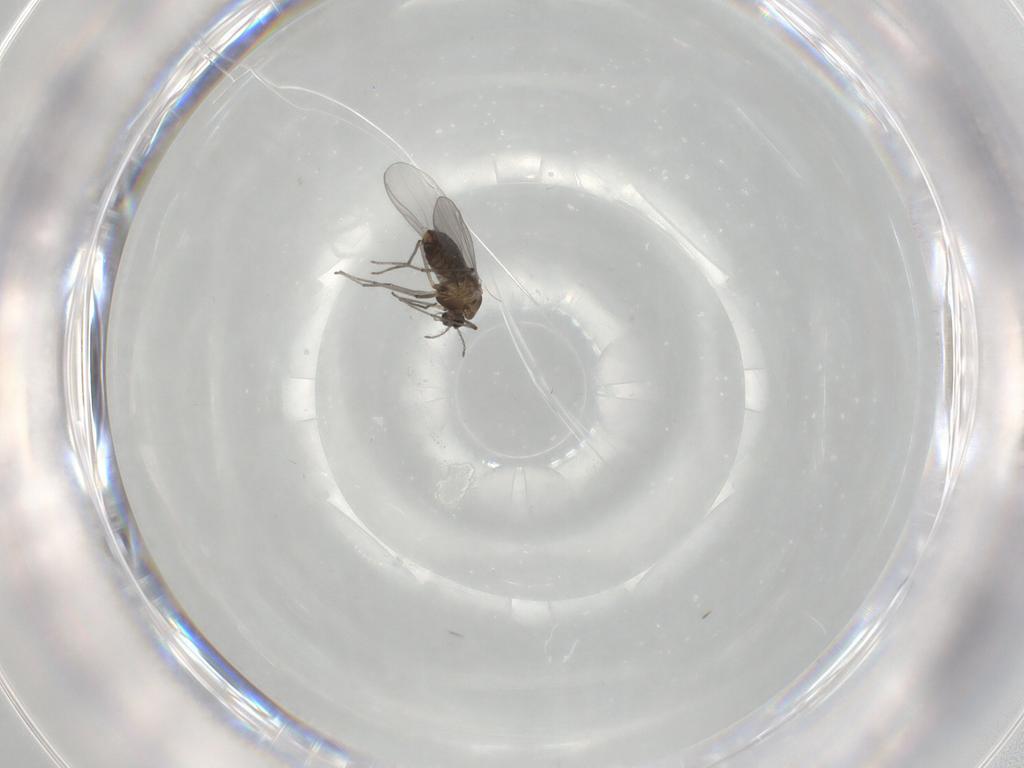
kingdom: Animalia
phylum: Arthropoda
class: Insecta
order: Diptera
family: Chironomidae
